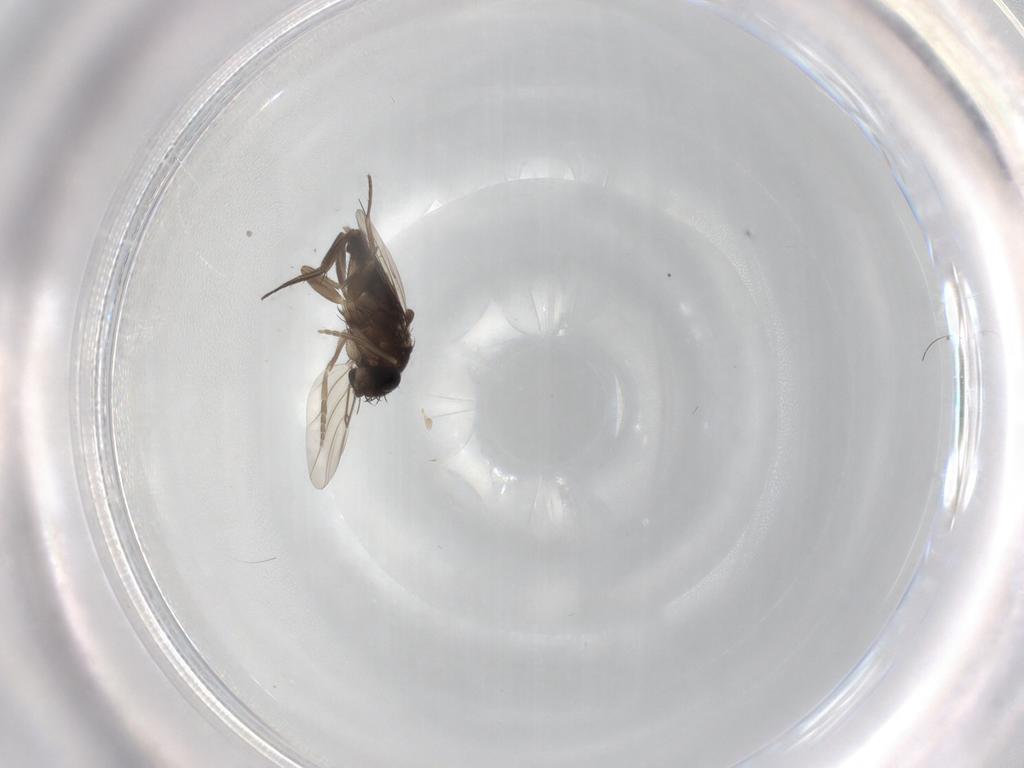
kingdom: Animalia
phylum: Arthropoda
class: Insecta
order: Diptera
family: Phoridae
